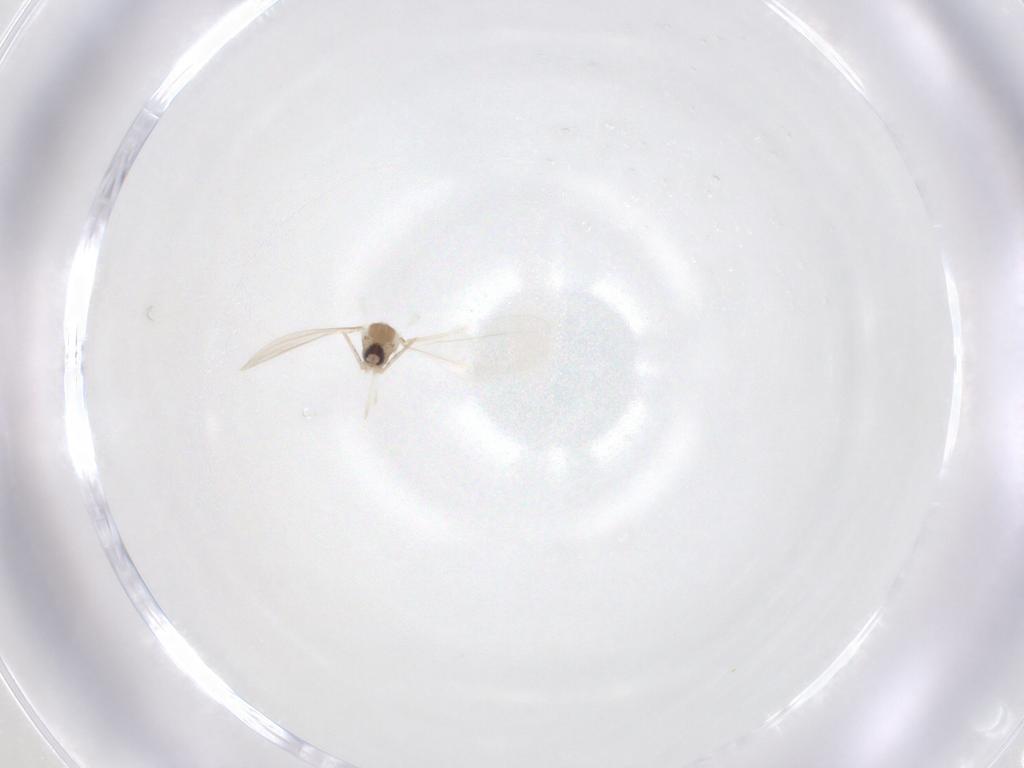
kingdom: Animalia
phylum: Arthropoda
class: Insecta
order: Diptera
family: Cecidomyiidae
